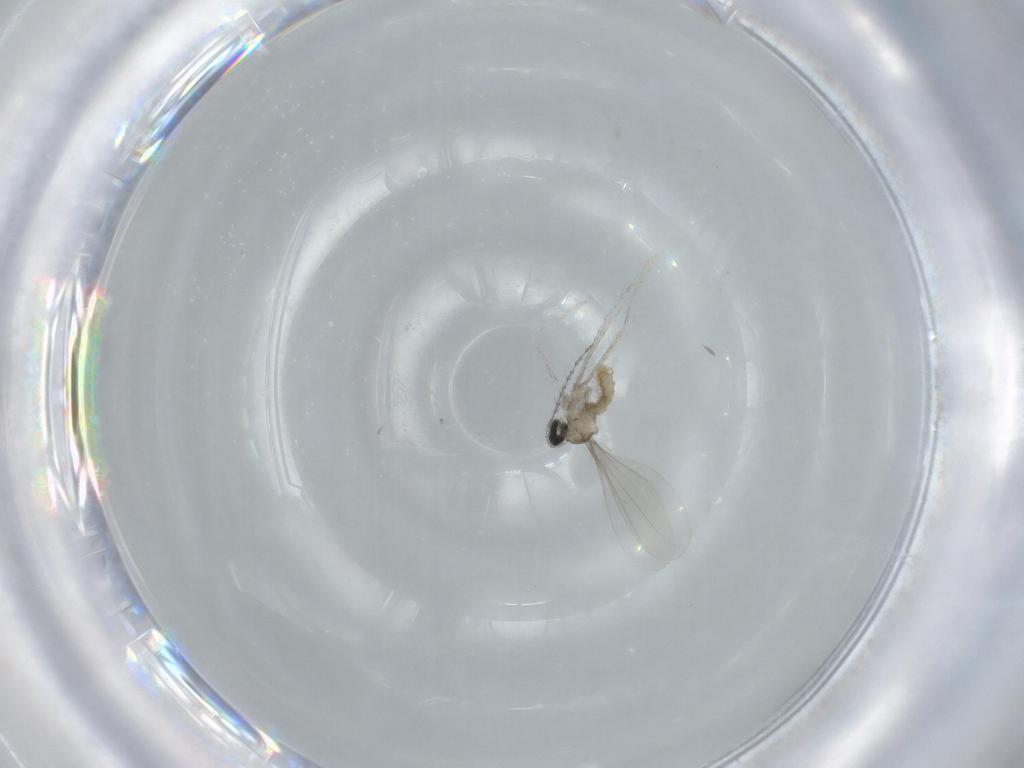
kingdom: Animalia
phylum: Arthropoda
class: Insecta
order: Diptera
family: Cecidomyiidae
